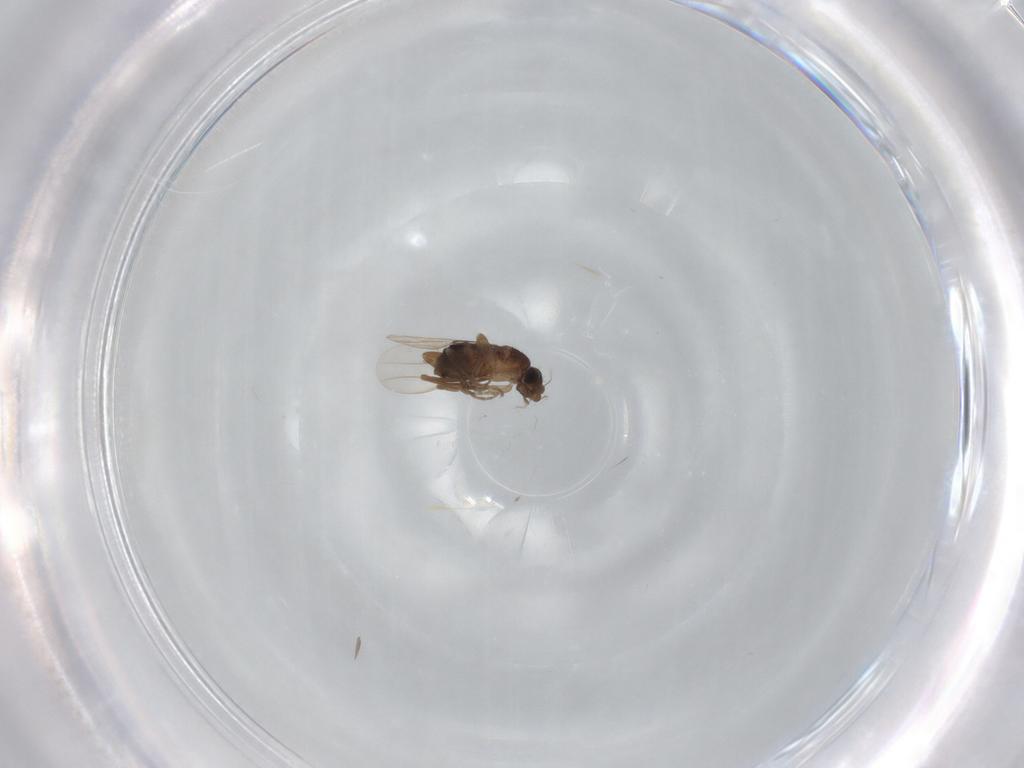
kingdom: Animalia
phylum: Arthropoda
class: Insecta
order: Diptera
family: Phoridae
